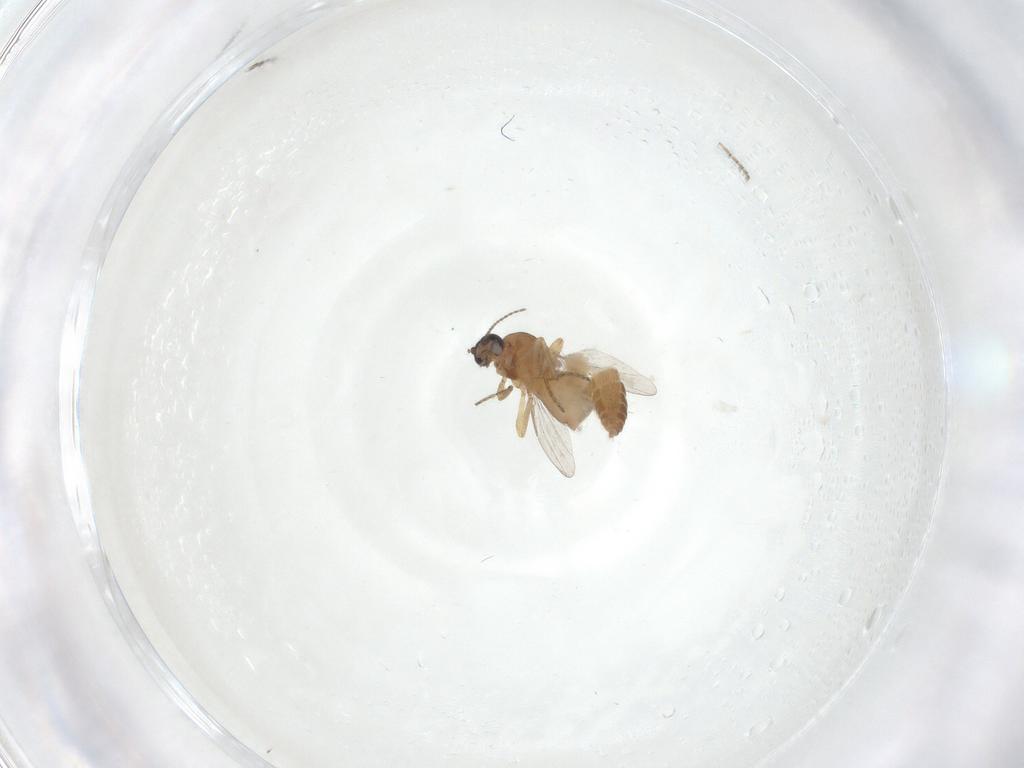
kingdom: Animalia
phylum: Arthropoda
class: Insecta
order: Diptera
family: Ceratopogonidae
